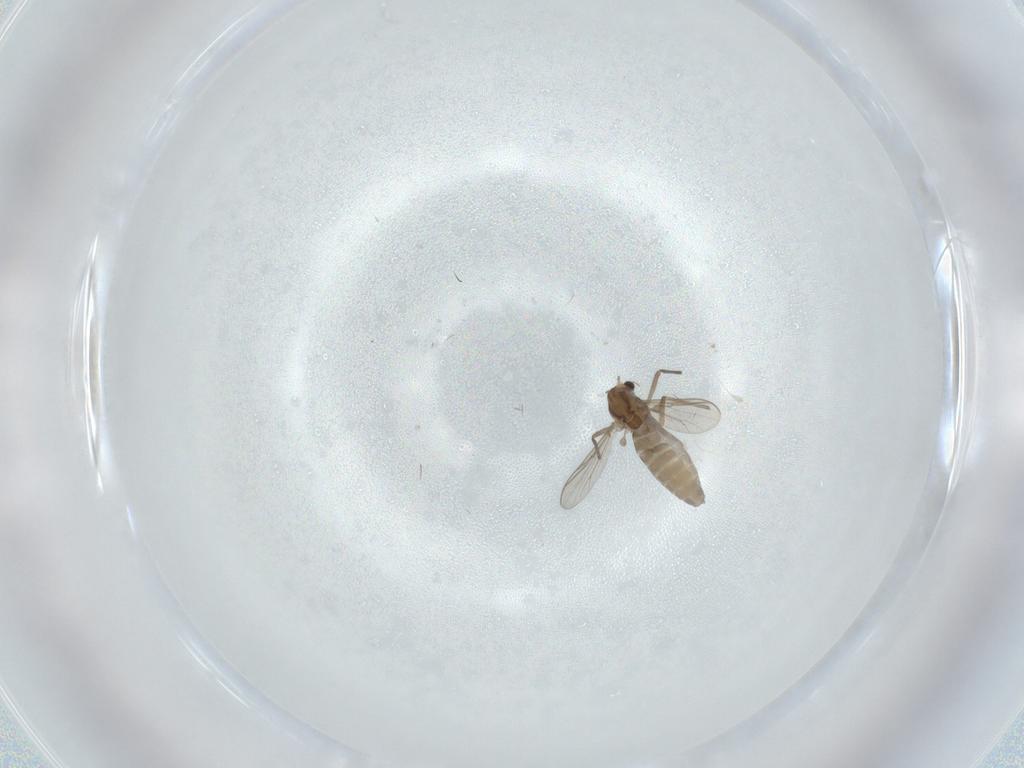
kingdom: Animalia
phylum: Arthropoda
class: Insecta
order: Diptera
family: Chironomidae
